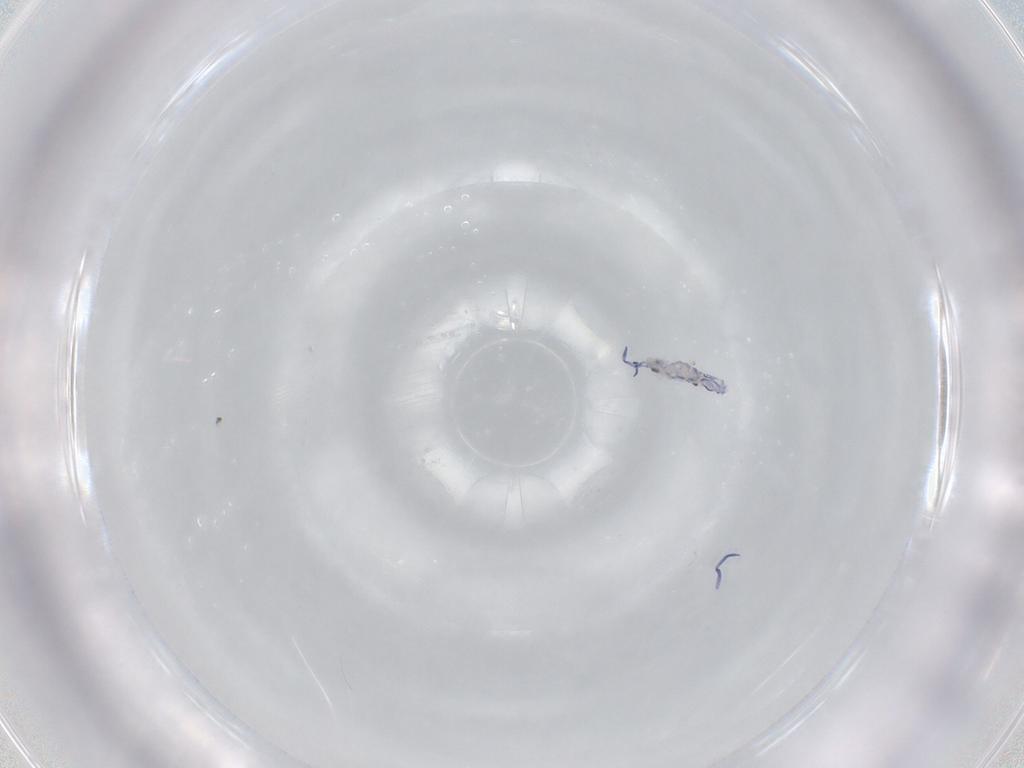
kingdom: Animalia
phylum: Arthropoda
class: Collembola
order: Entomobryomorpha
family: Entomobryidae
